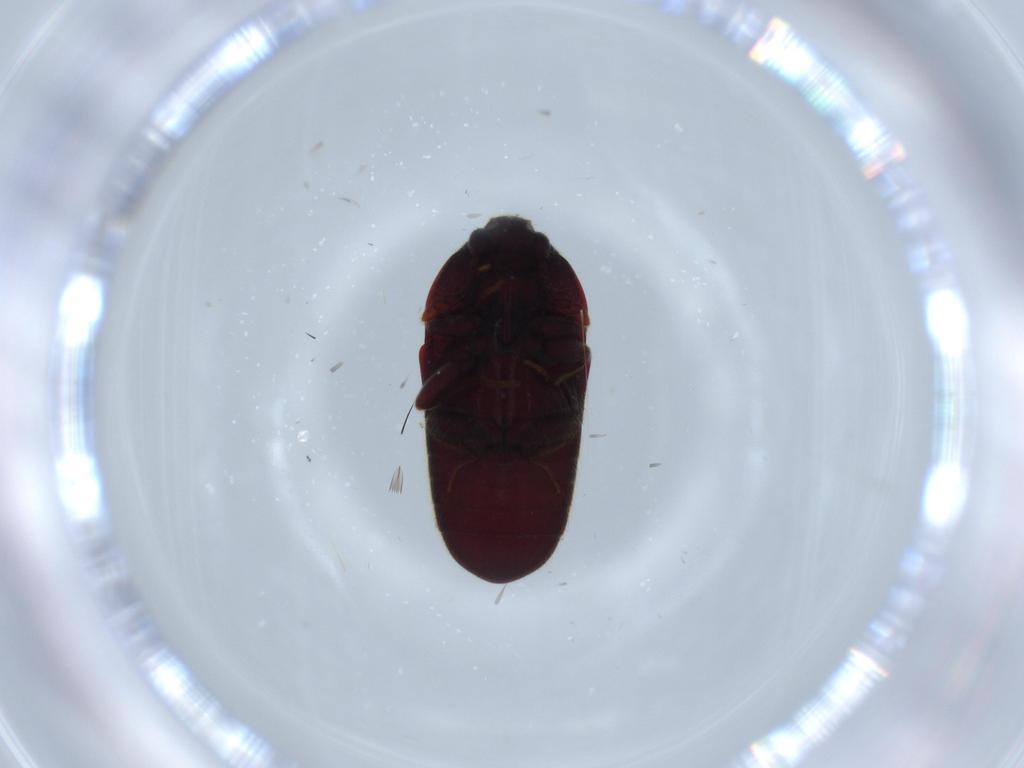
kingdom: Animalia
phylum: Arthropoda
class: Insecta
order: Coleoptera
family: Throscidae
